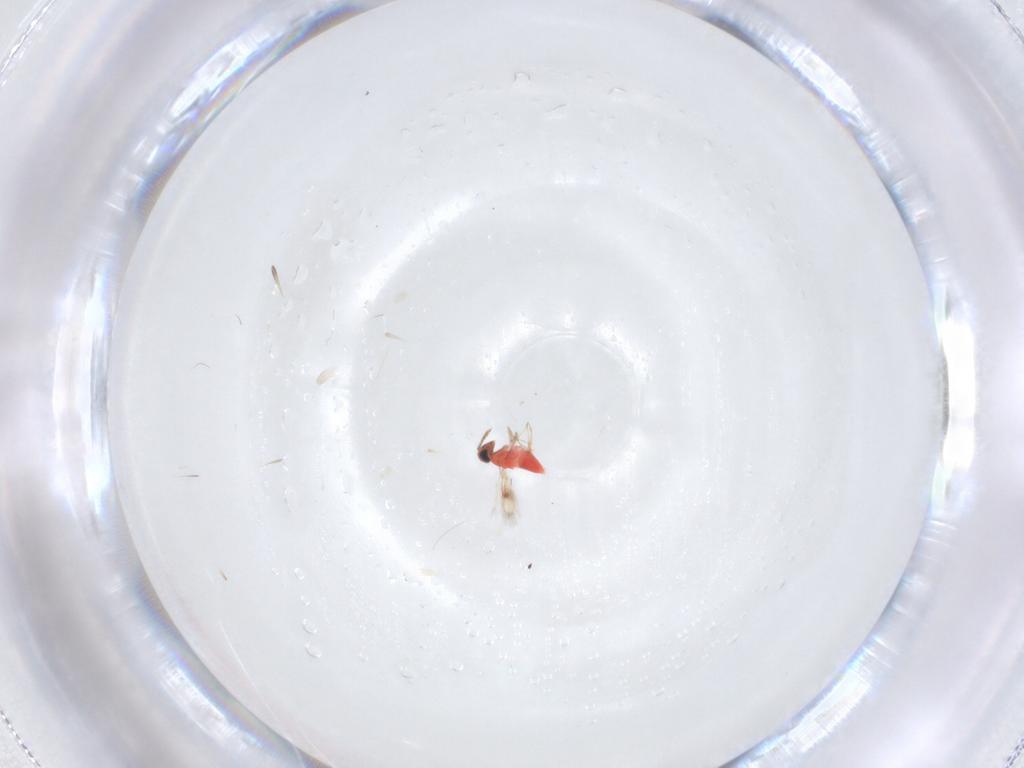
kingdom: Animalia
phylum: Arthropoda
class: Insecta
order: Hymenoptera
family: Trichogrammatidae
